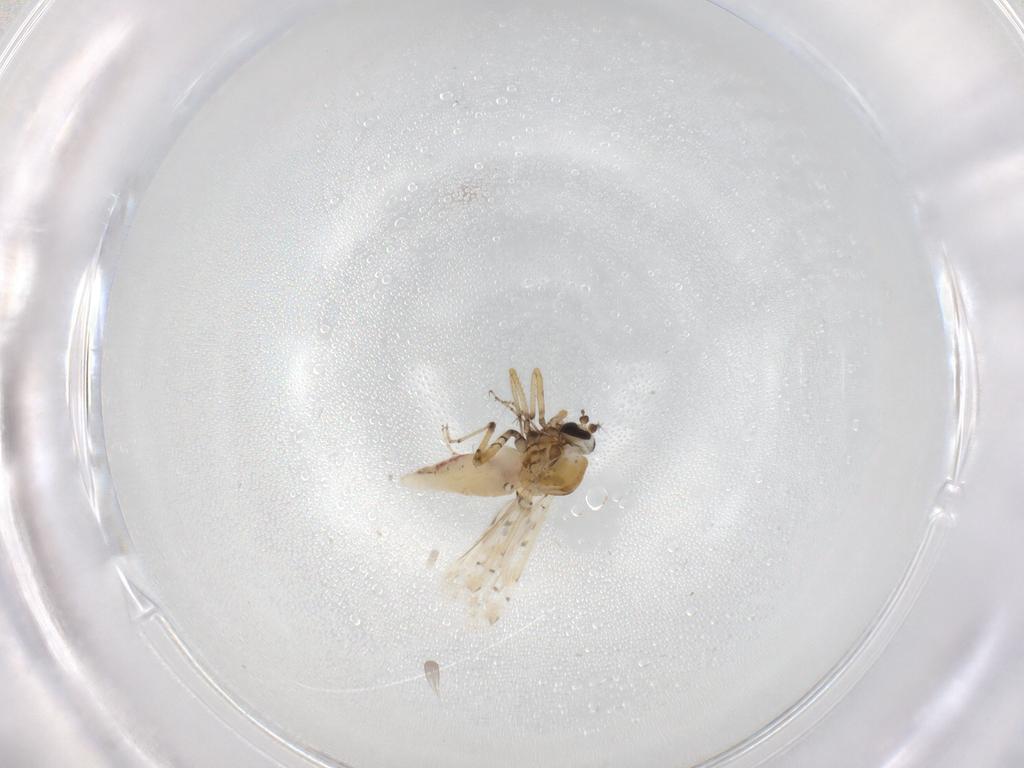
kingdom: Animalia
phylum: Arthropoda
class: Insecta
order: Diptera
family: Ceratopogonidae
